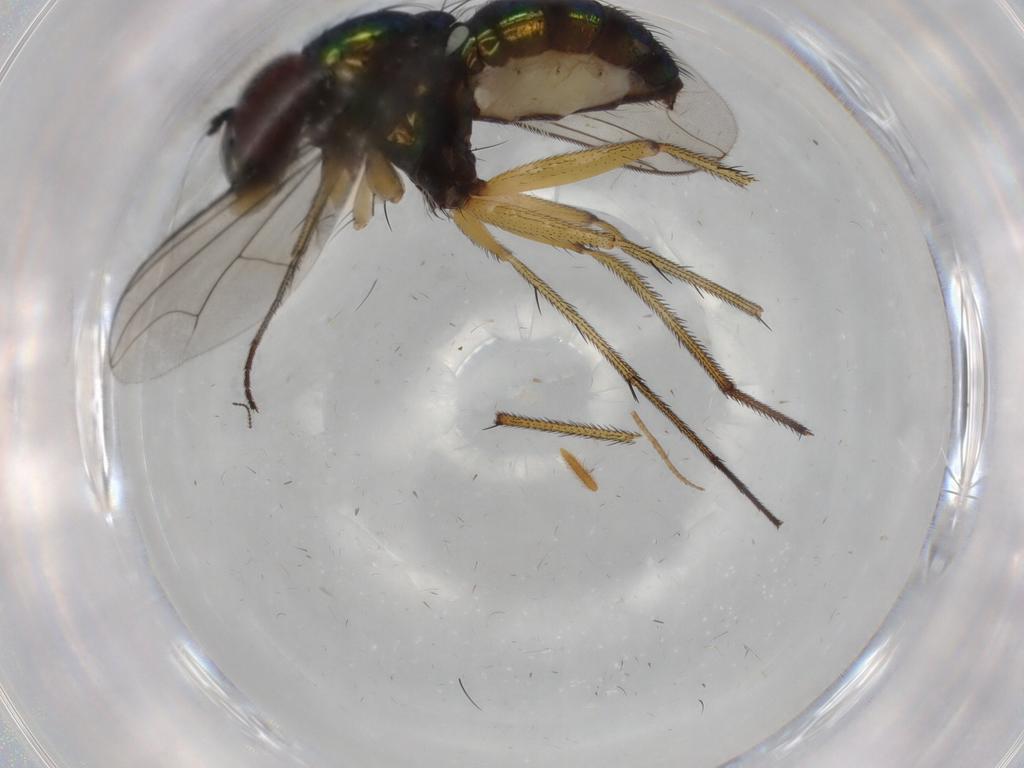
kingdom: Animalia
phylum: Arthropoda
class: Insecta
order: Diptera
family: Dolichopodidae
